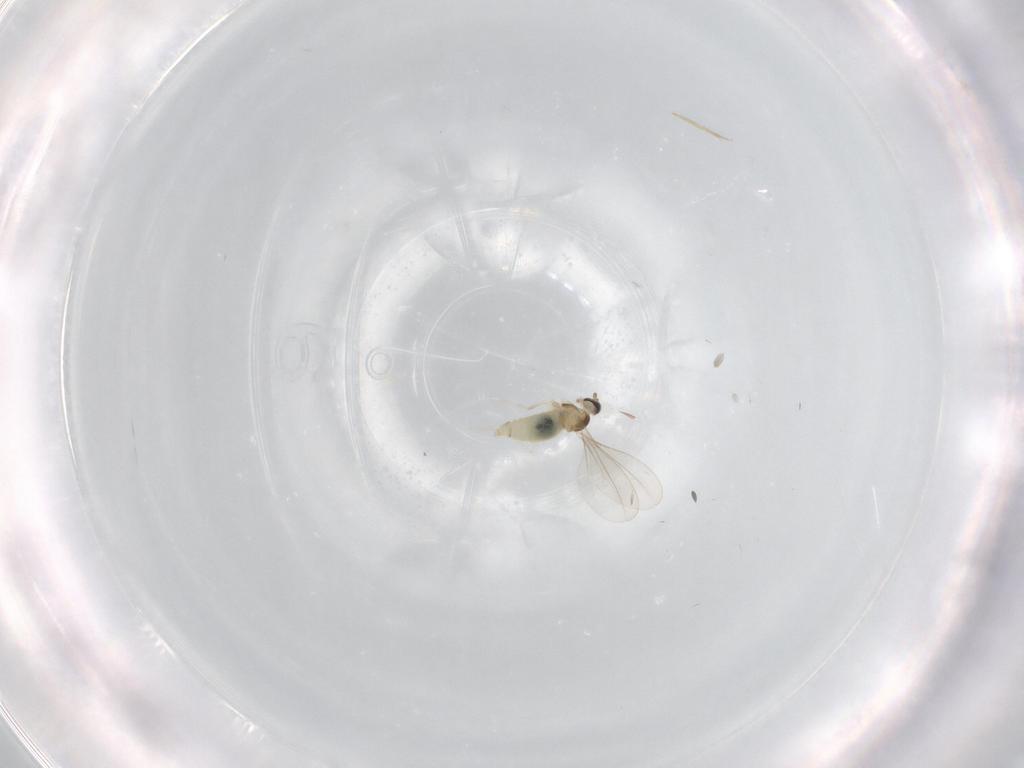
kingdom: Animalia
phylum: Arthropoda
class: Insecta
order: Diptera
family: Cecidomyiidae
